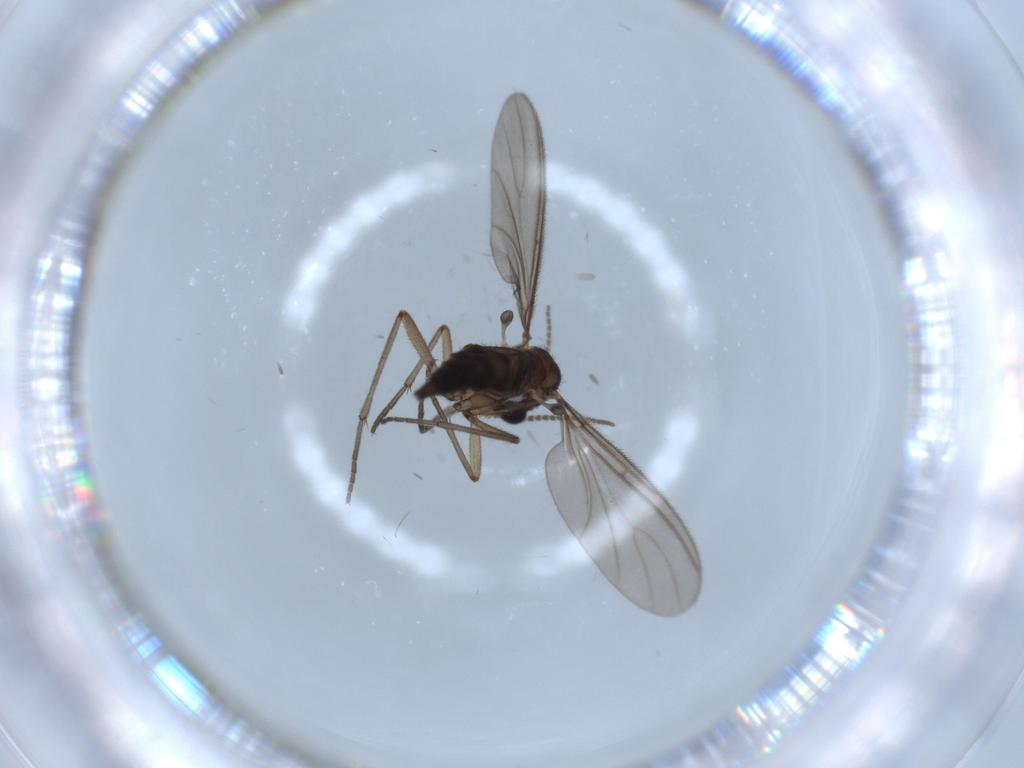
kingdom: Animalia
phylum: Arthropoda
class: Insecta
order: Diptera
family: Sciaridae
